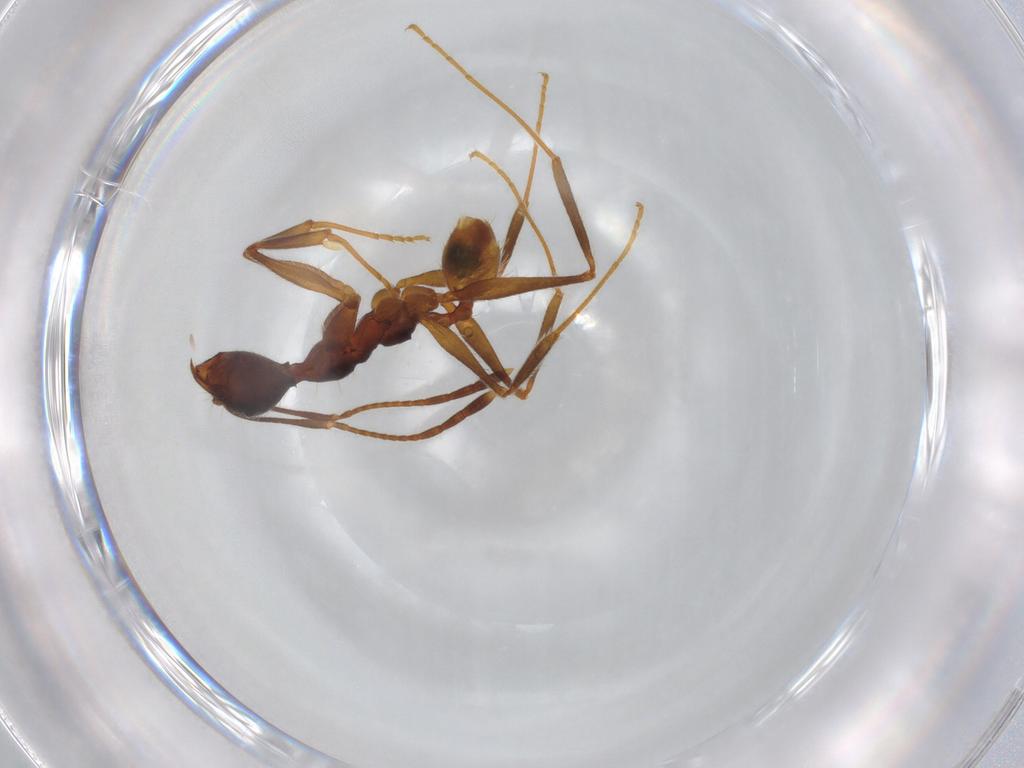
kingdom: Animalia
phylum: Arthropoda
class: Insecta
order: Hymenoptera
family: Formicidae
